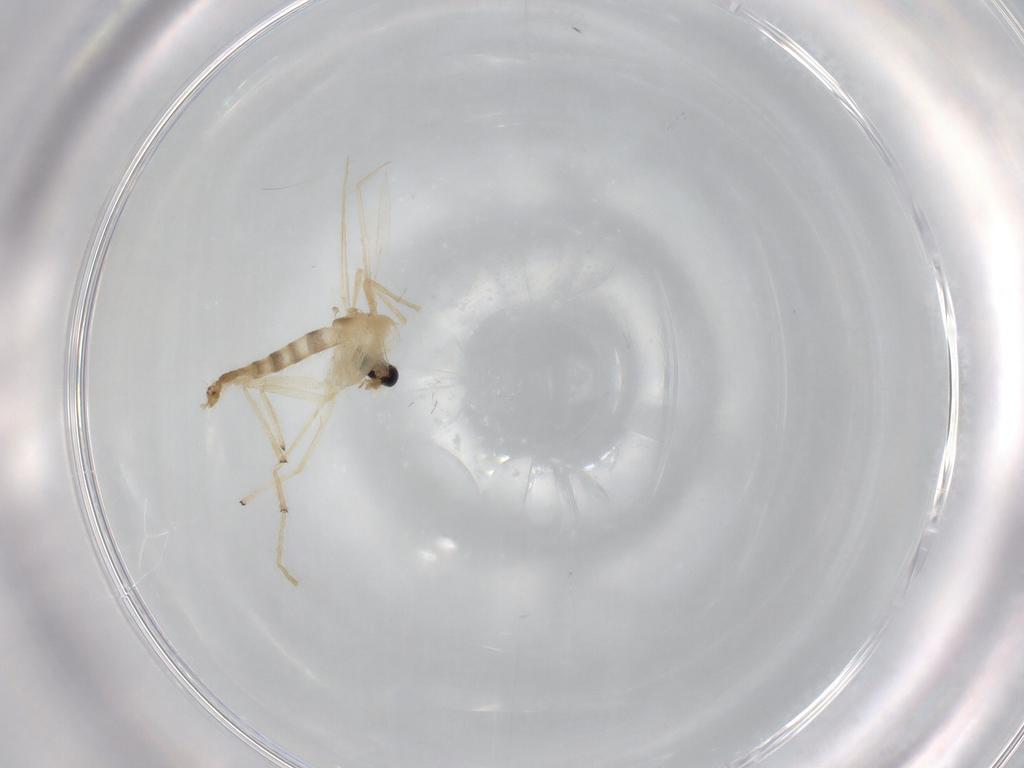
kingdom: Animalia
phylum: Arthropoda
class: Insecta
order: Diptera
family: Chironomidae
